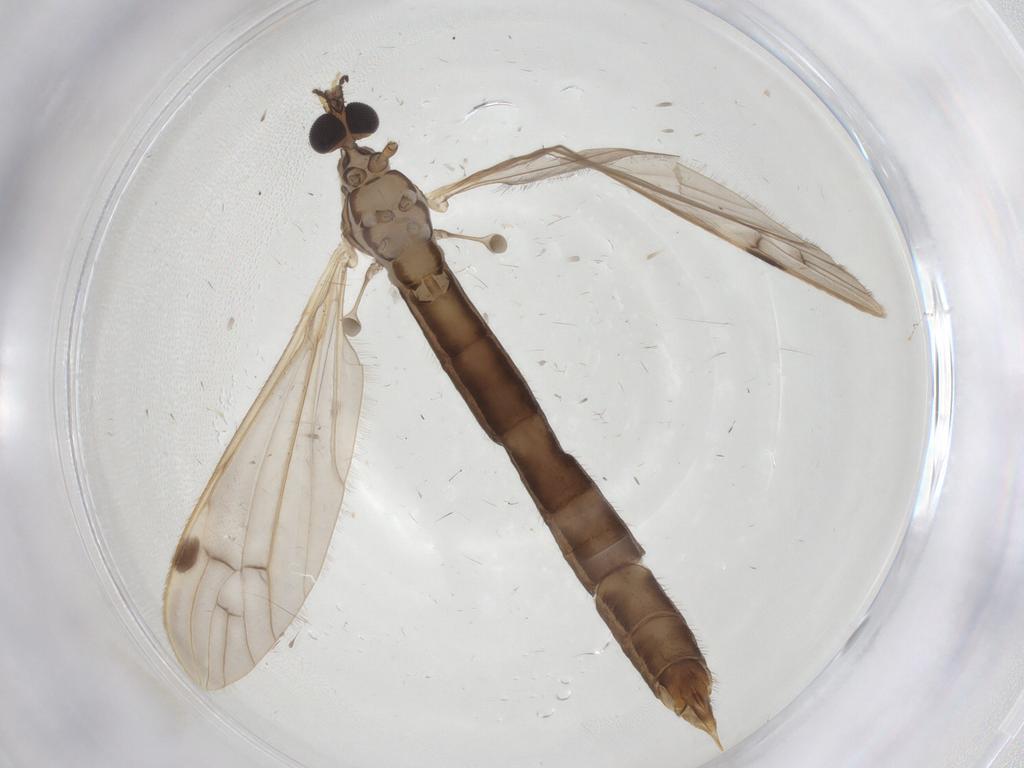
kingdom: Animalia
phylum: Arthropoda
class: Insecta
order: Diptera
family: Limoniidae
